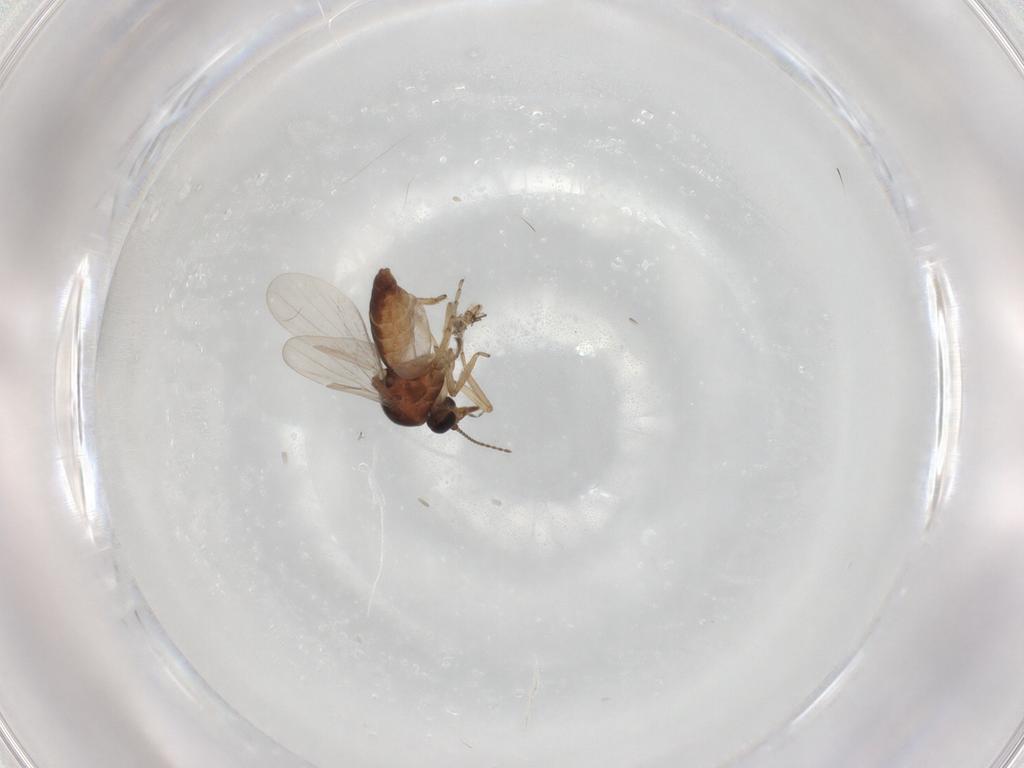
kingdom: Animalia
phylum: Arthropoda
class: Insecta
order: Diptera
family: Ceratopogonidae
